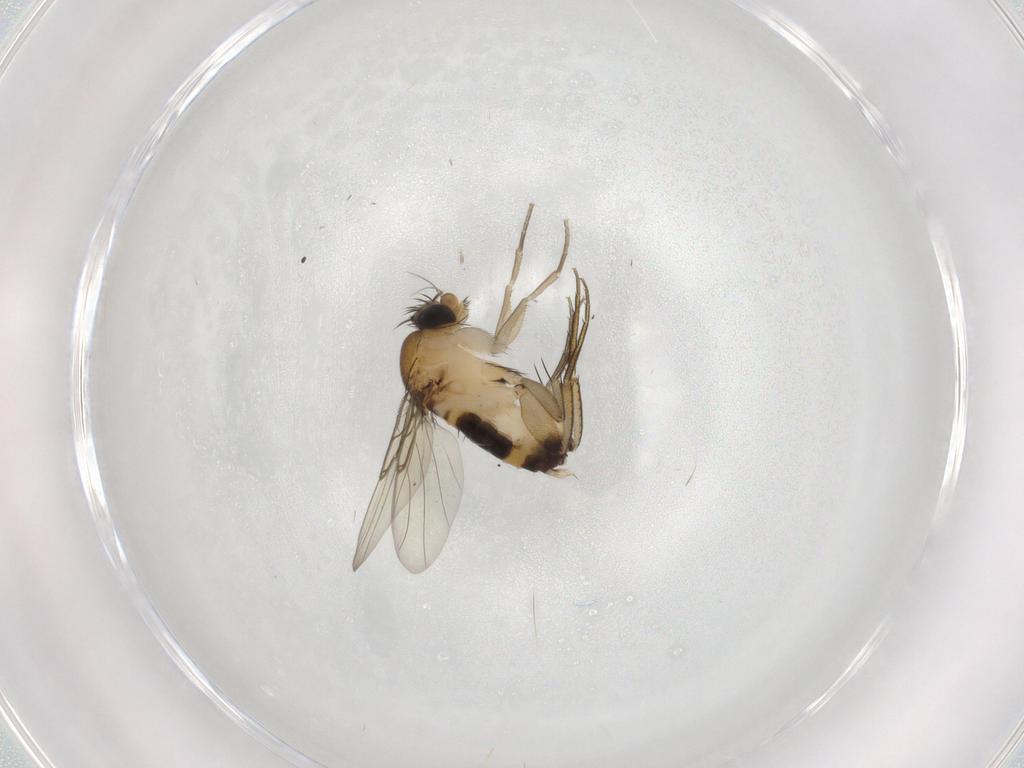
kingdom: Animalia
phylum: Arthropoda
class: Insecta
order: Diptera
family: Phoridae
